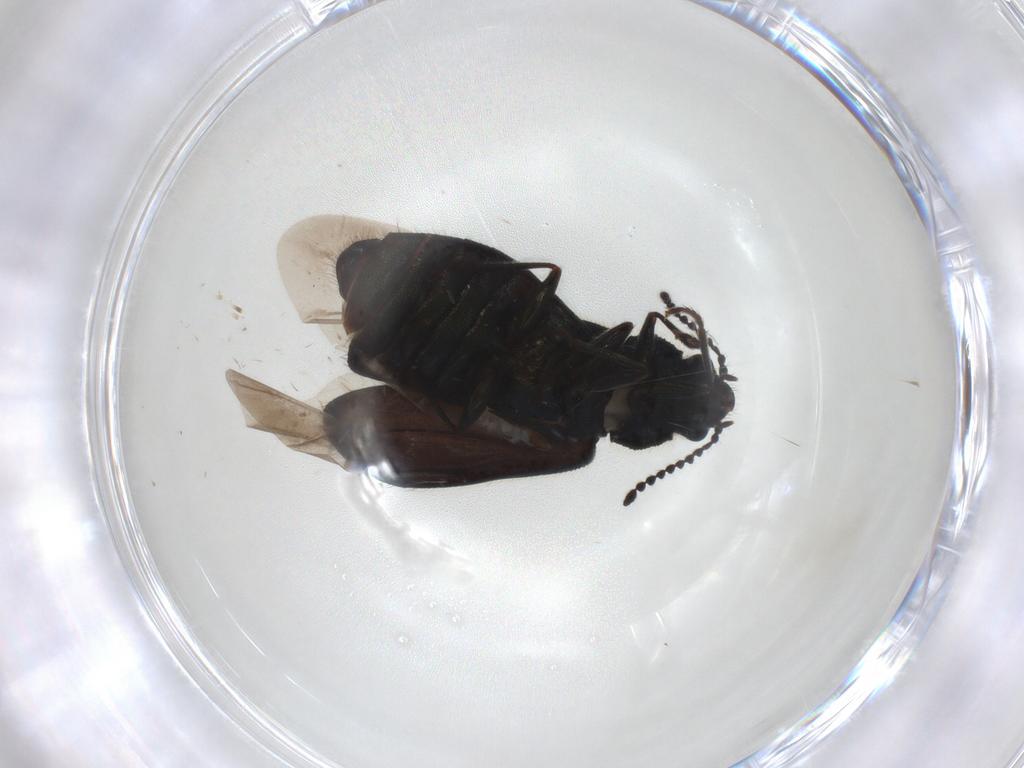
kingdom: Animalia
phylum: Arthropoda
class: Insecta
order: Coleoptera
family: Melyridae
